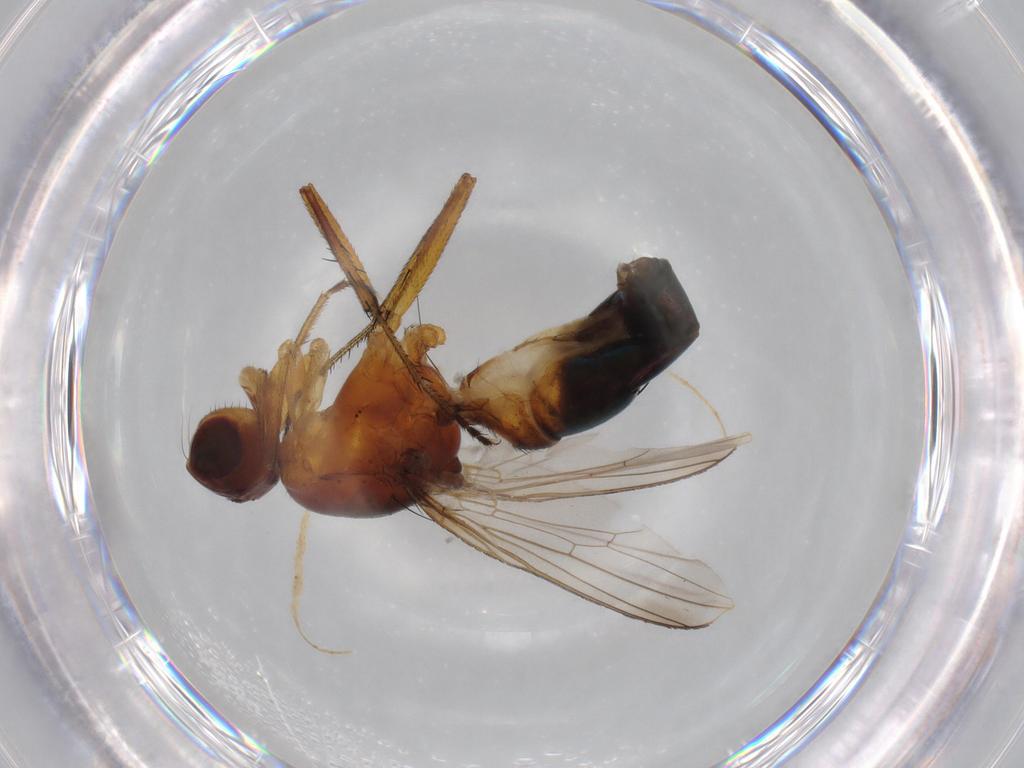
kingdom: Animalia
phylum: Arthropoda
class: Insecta
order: Diptera
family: Sepsidae
